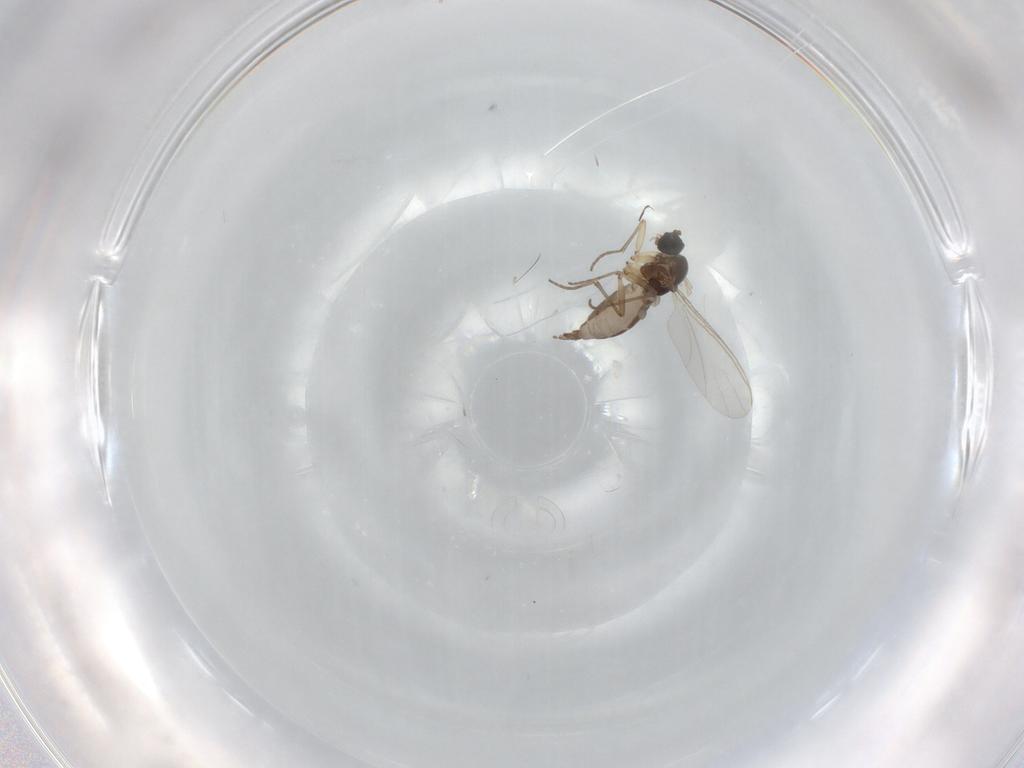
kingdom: Animalia
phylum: Arthropoda
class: Insecta
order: Diptera
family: Sciaridae
